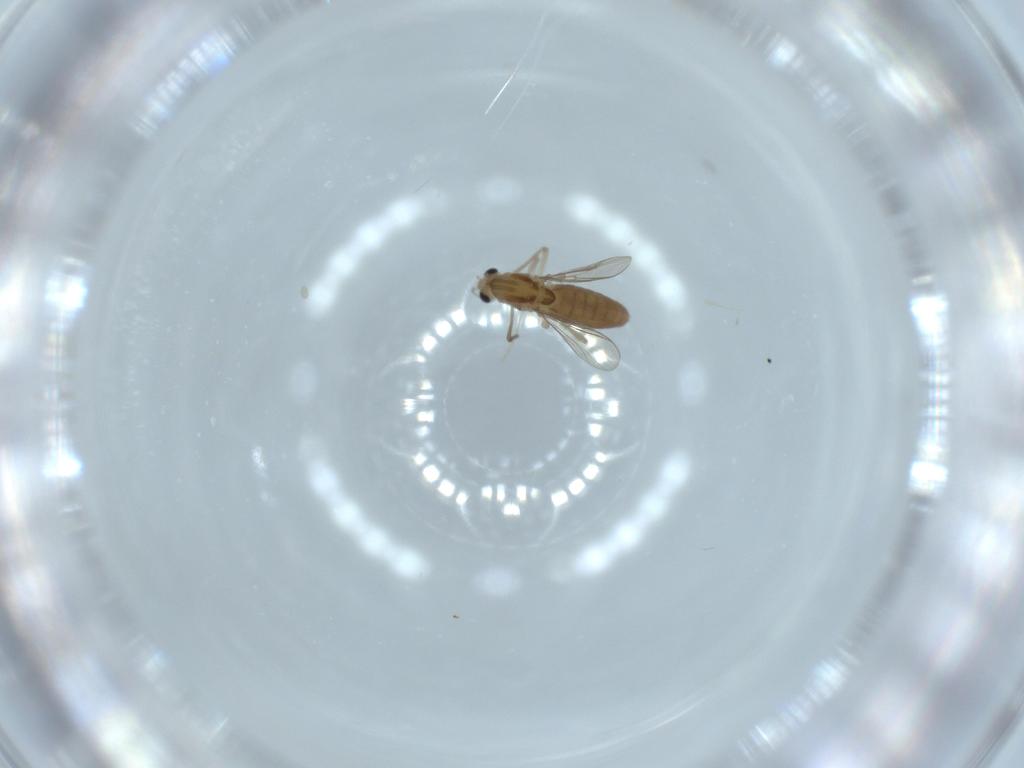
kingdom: Animalia
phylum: Arthropoda
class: Insecta
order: Diptera
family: Chironomidae
